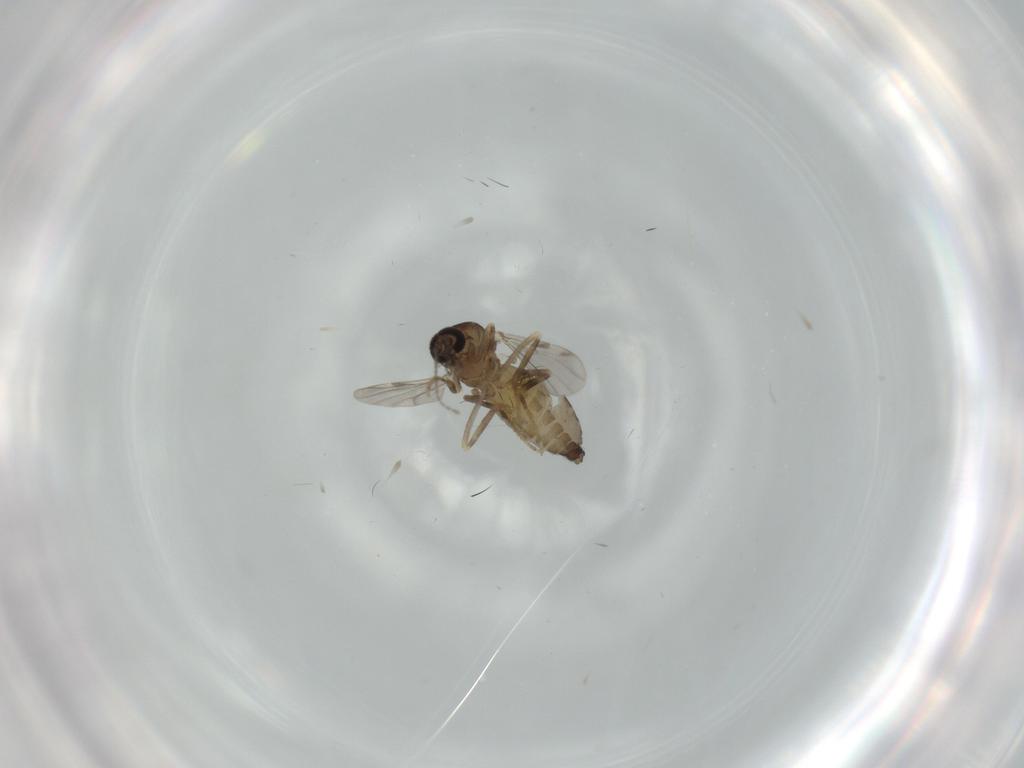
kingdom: Animalia
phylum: Arthropoda
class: Insecta
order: Diptera
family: Ceratopogonidae
